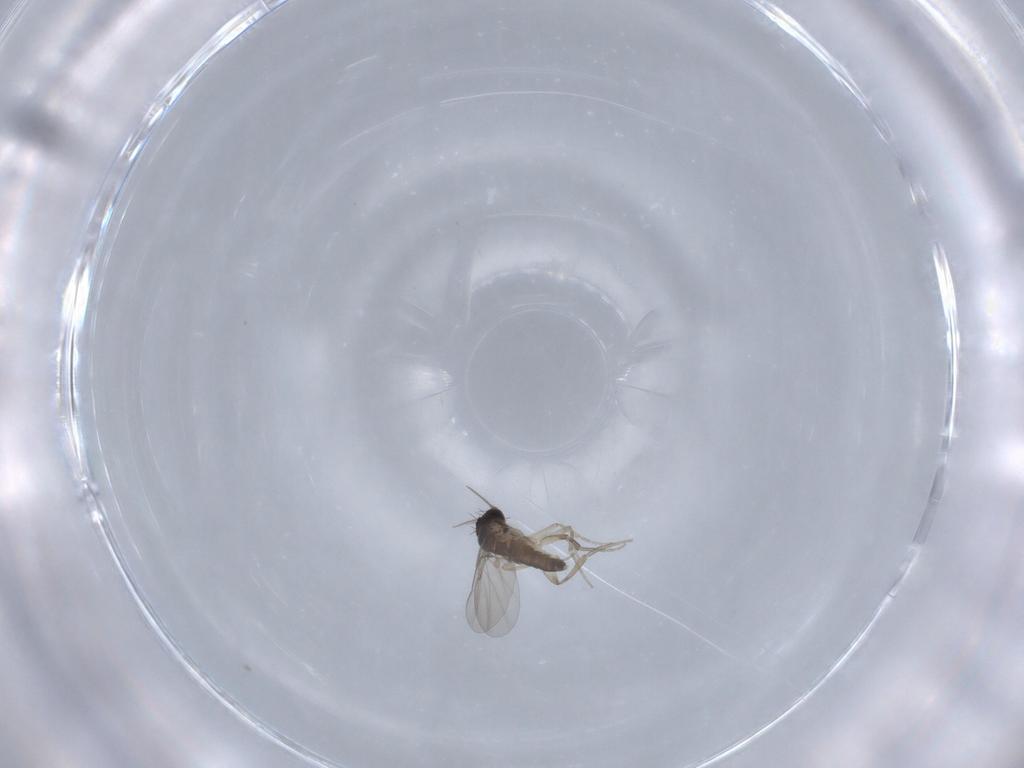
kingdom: Animalia
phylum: Arthropoda
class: Insecta
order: Diptera
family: Phoridae
